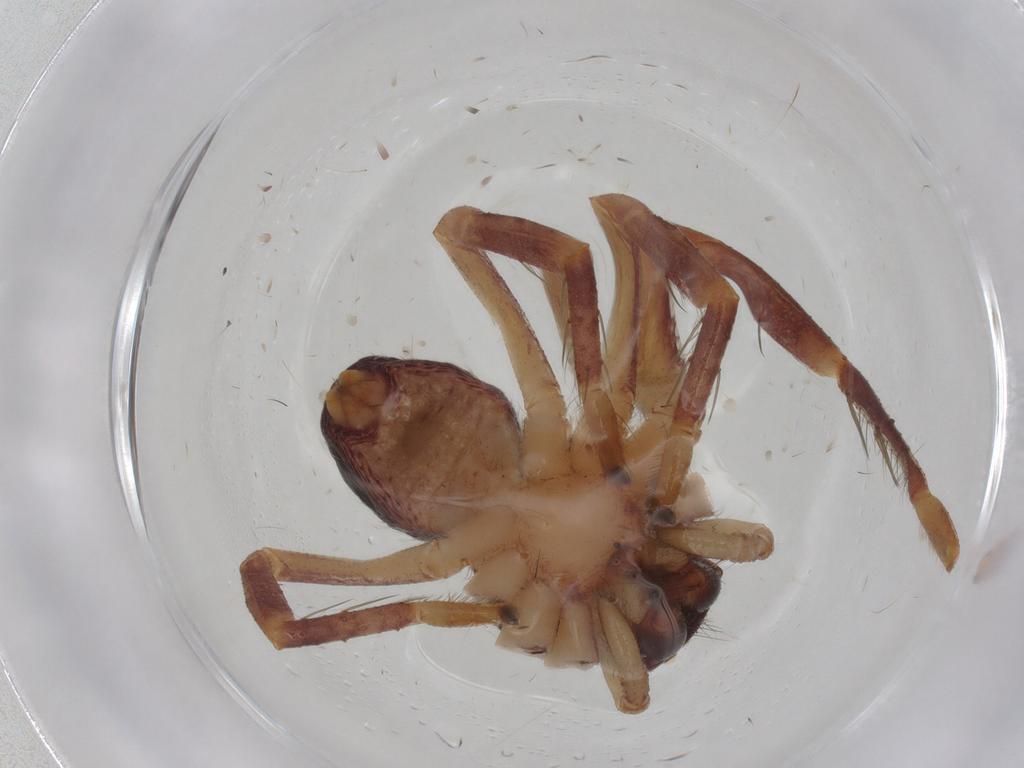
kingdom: Animalia
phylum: Arthropoda
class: Arachnida
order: Araneae
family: Sparassidae
